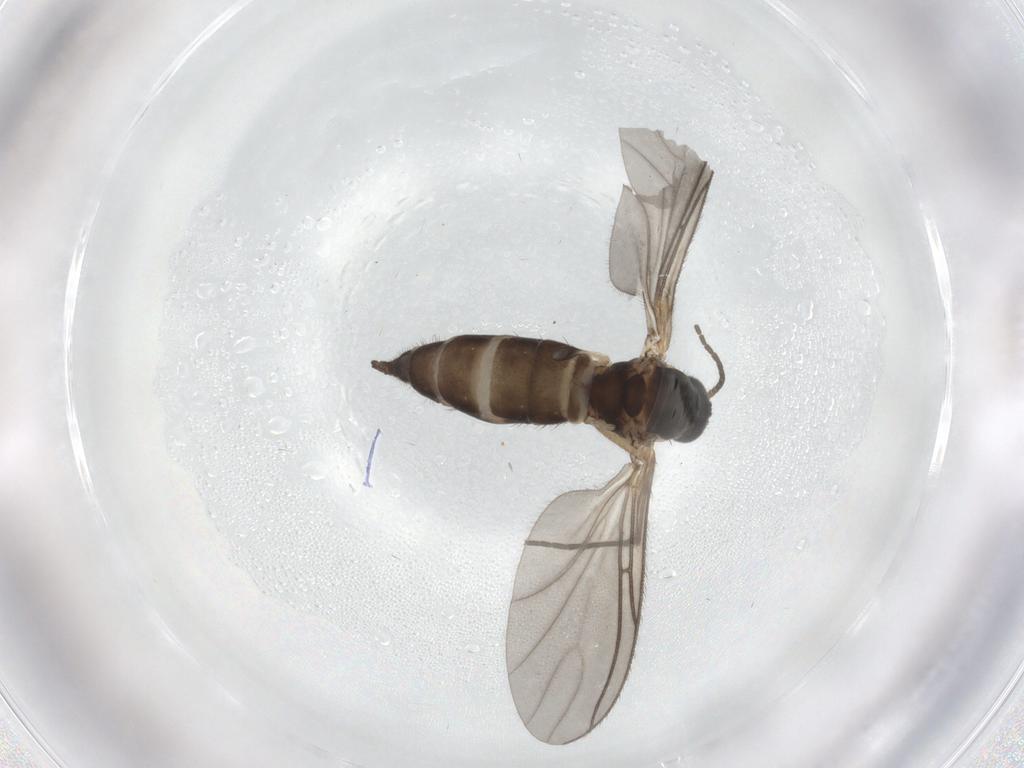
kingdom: Animalia
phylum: Arthropoda
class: Insecta
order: Diptera
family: Sciaridae
